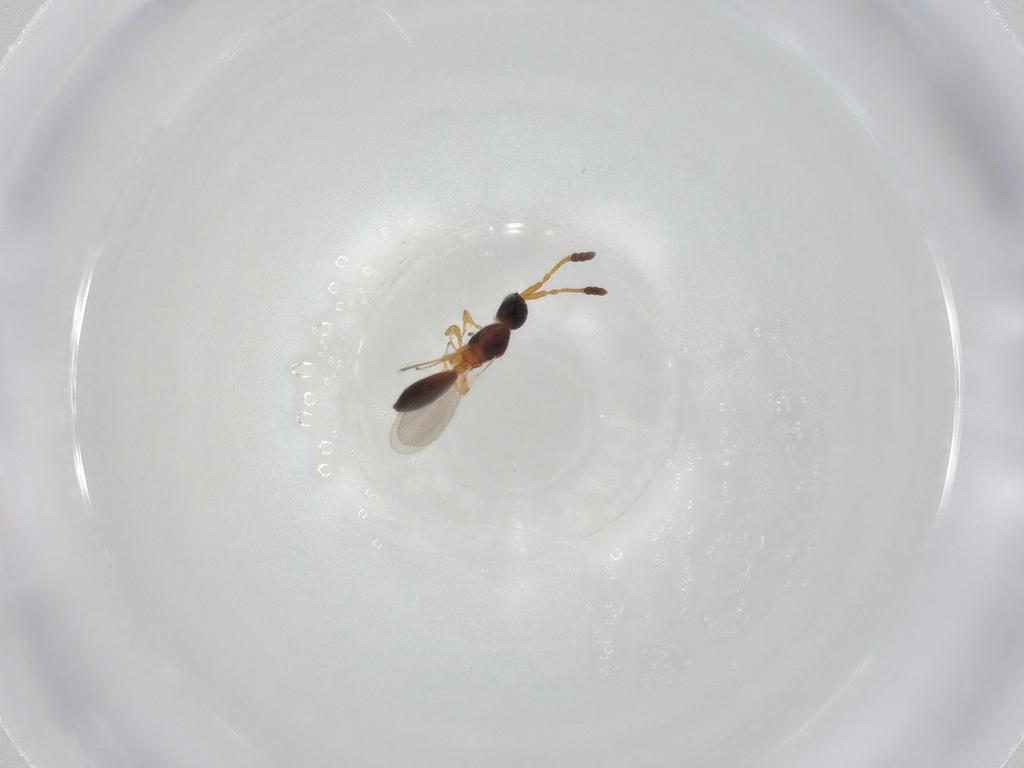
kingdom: Animalia
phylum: Arthropoda
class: Insecta
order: Hymenoptera
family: Diapriidae
